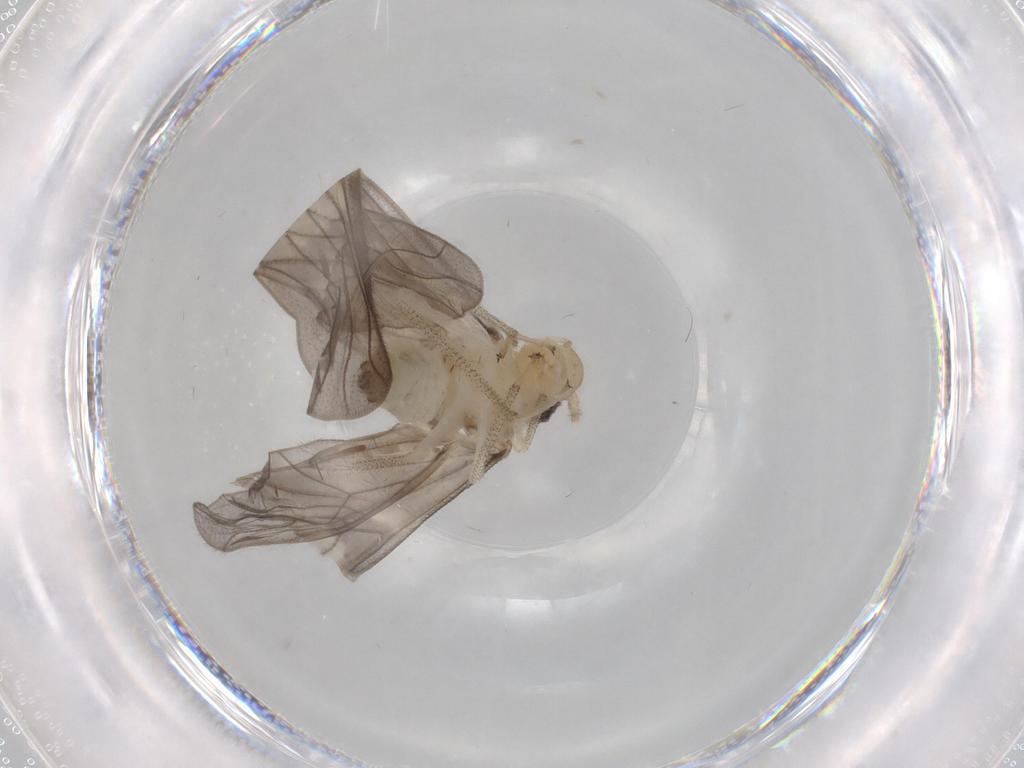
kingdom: Animalia
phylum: Arthropoda
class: Insecta
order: Psocodea
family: Amphipsocidae
